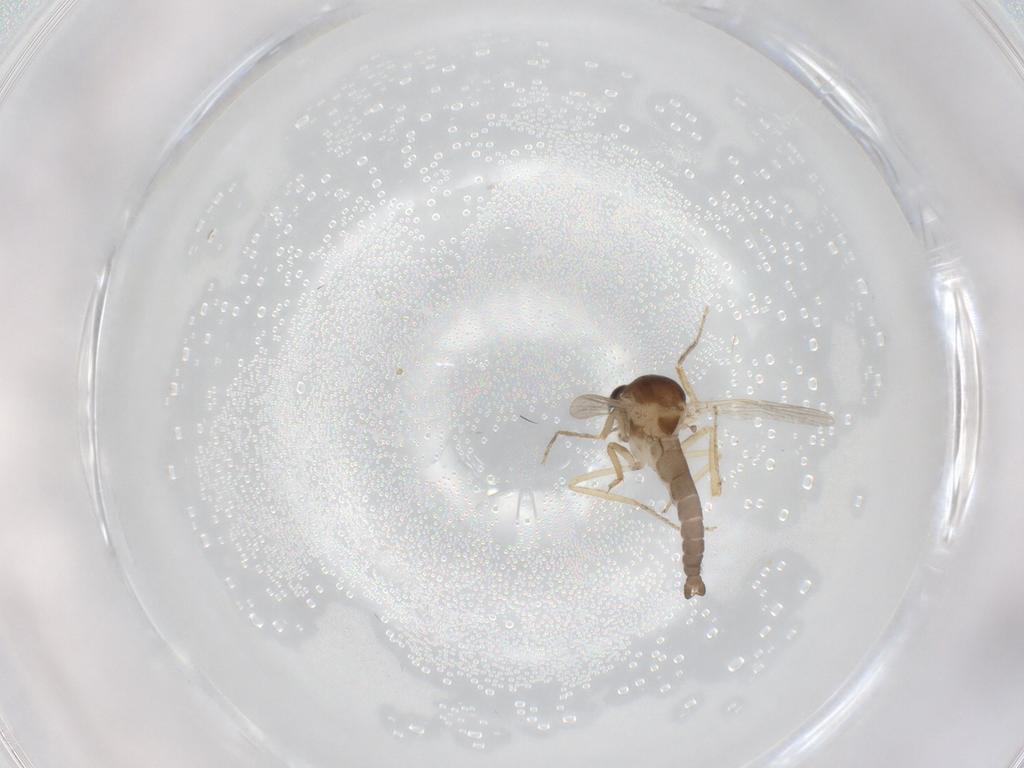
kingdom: Animalia
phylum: Arthropoda
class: Insecta
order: Diptera
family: Ceratopogonidae
